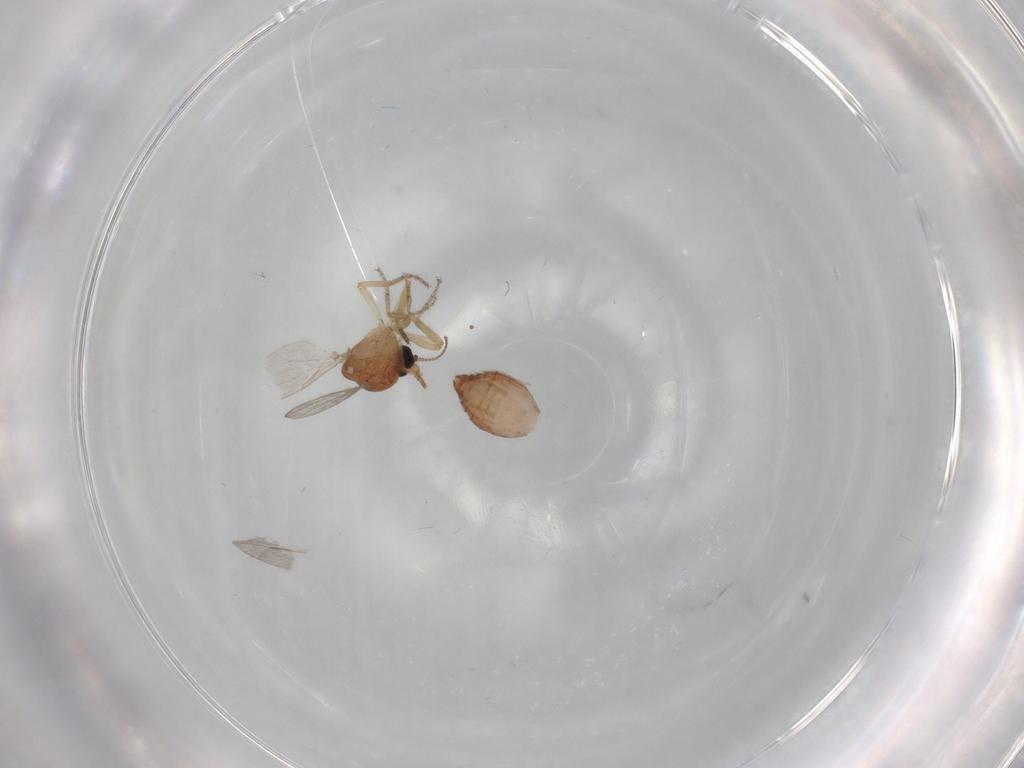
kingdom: Animalia
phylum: Arthropoda
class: Insecta
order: Diptera
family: Ceratopogonidae
